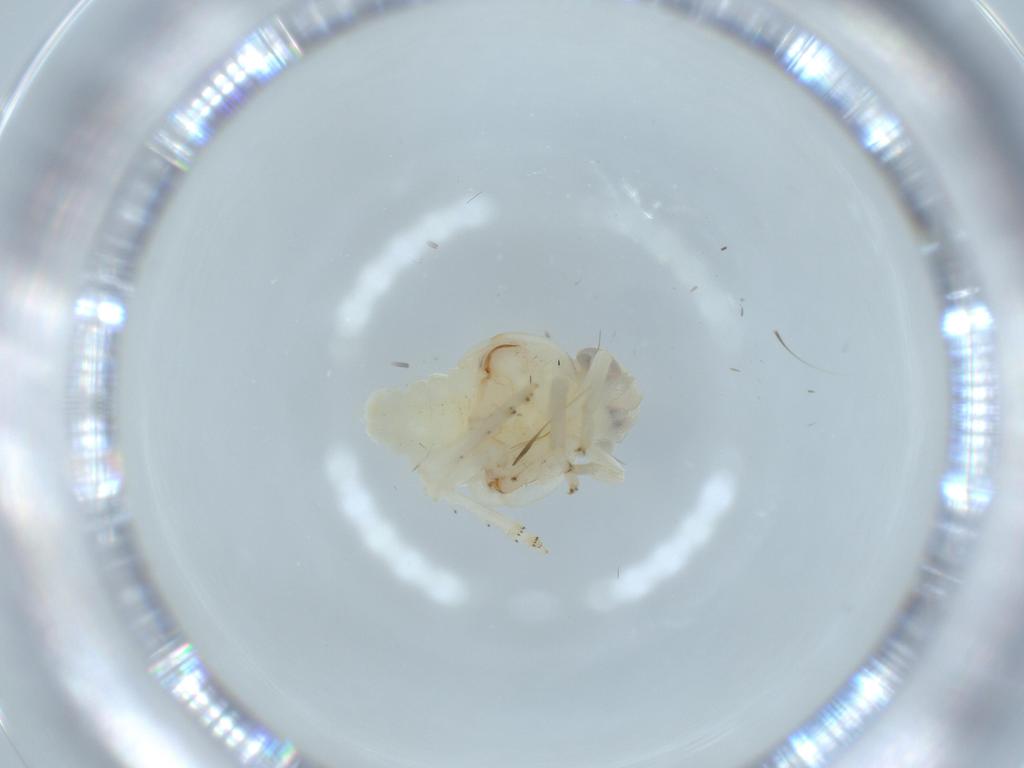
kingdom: Animalia
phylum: Arthropoda
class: Insecta
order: Hemiptera
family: Nogodinidae
